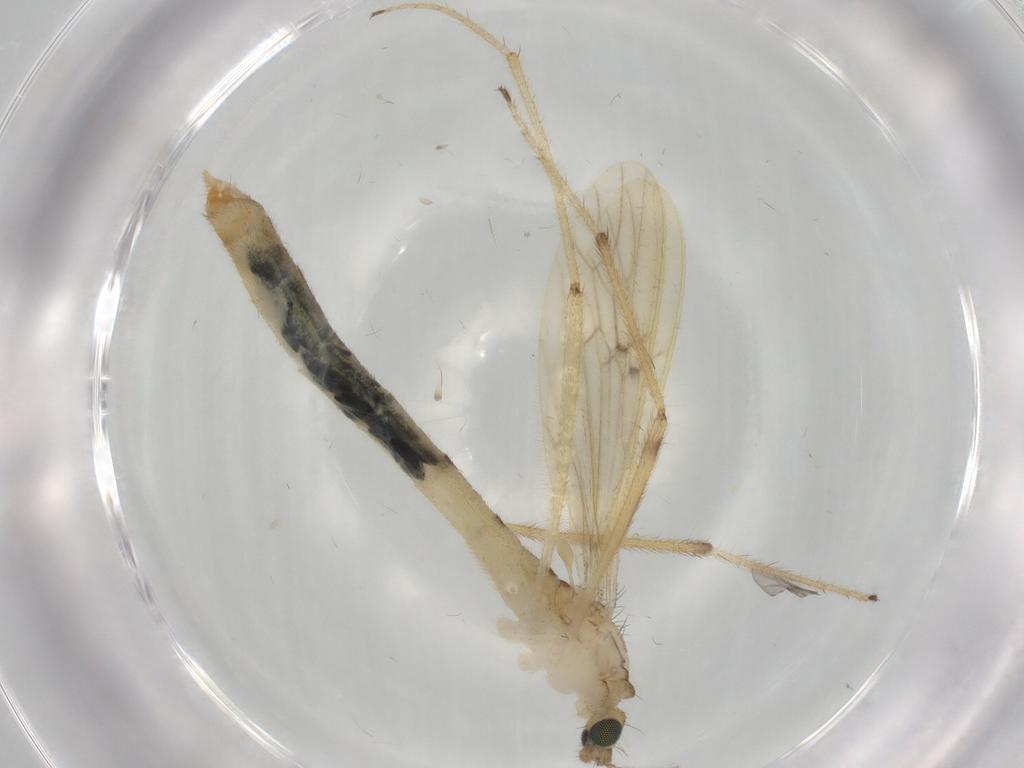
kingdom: Animalia
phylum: Arthropoda
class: Insecta
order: Diptera
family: Limoniidae
